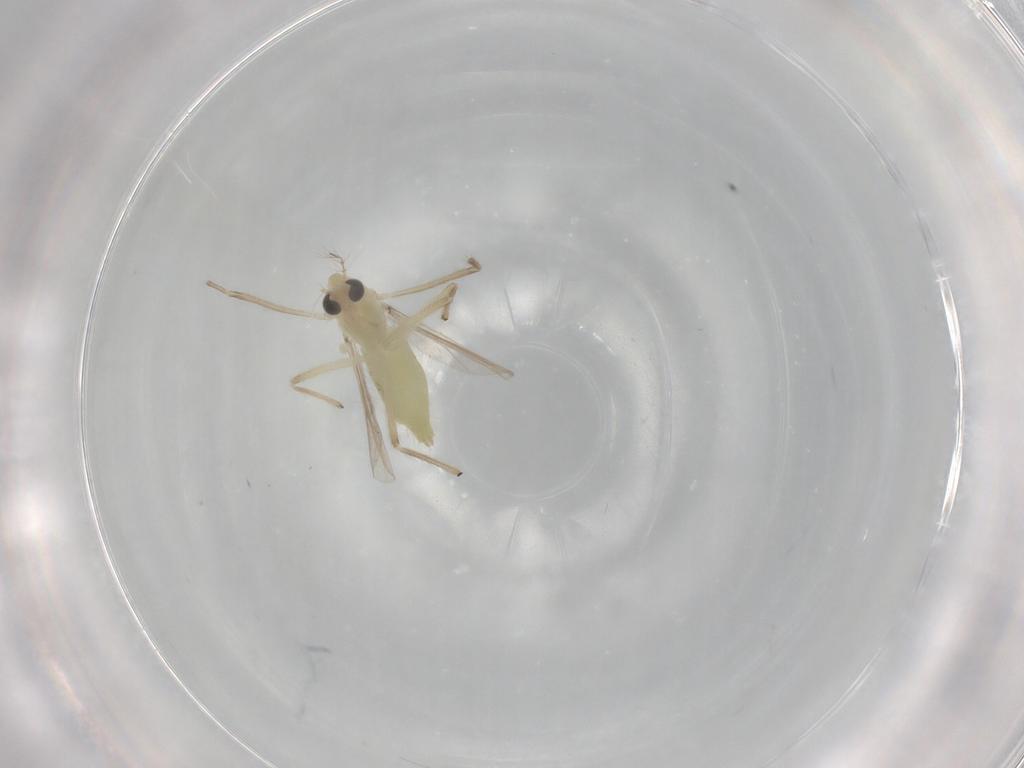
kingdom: Animalia
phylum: Arthropoda
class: Insecta
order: Diptera
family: Chironomidae
